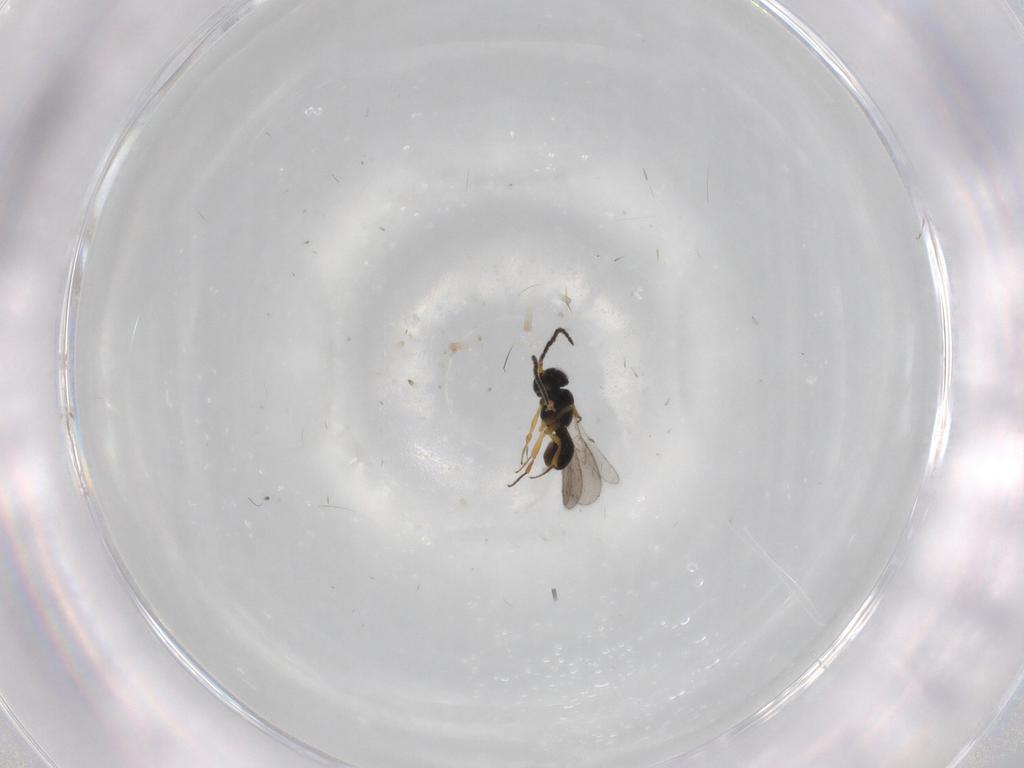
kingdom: Animalia
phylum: Arthropoda
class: Insecta
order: Hymenoptera
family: Scelionidae
